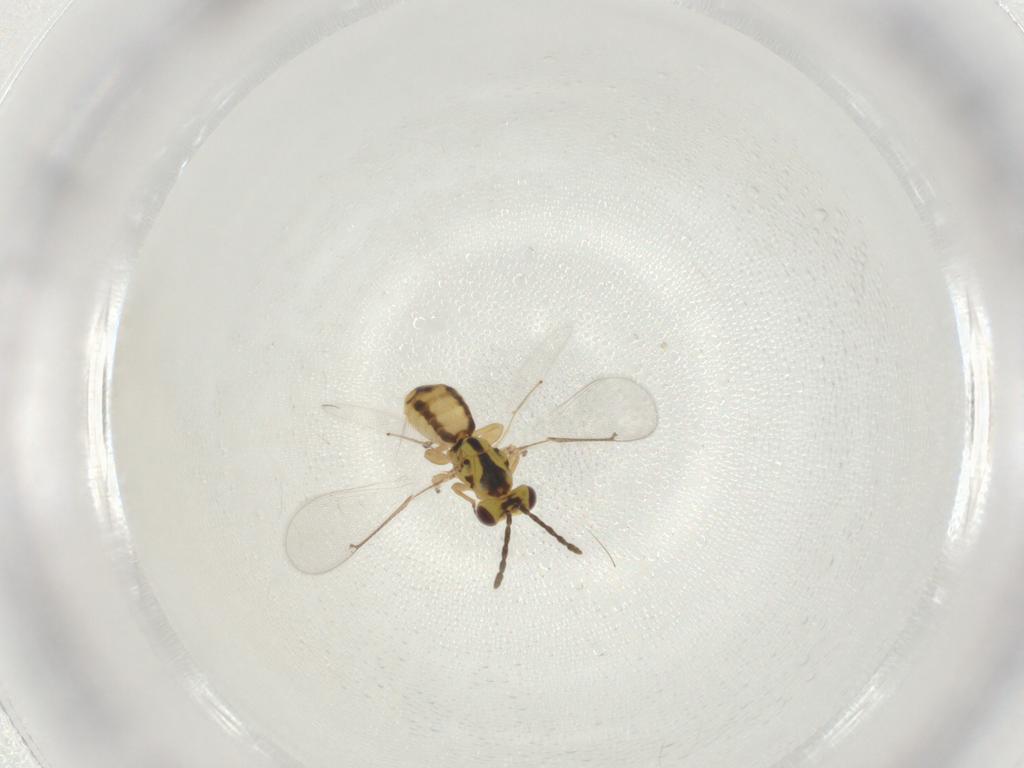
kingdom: Animalia
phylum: Arthropoda
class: Insecta
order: Hymenoptera
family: Eulophidae
